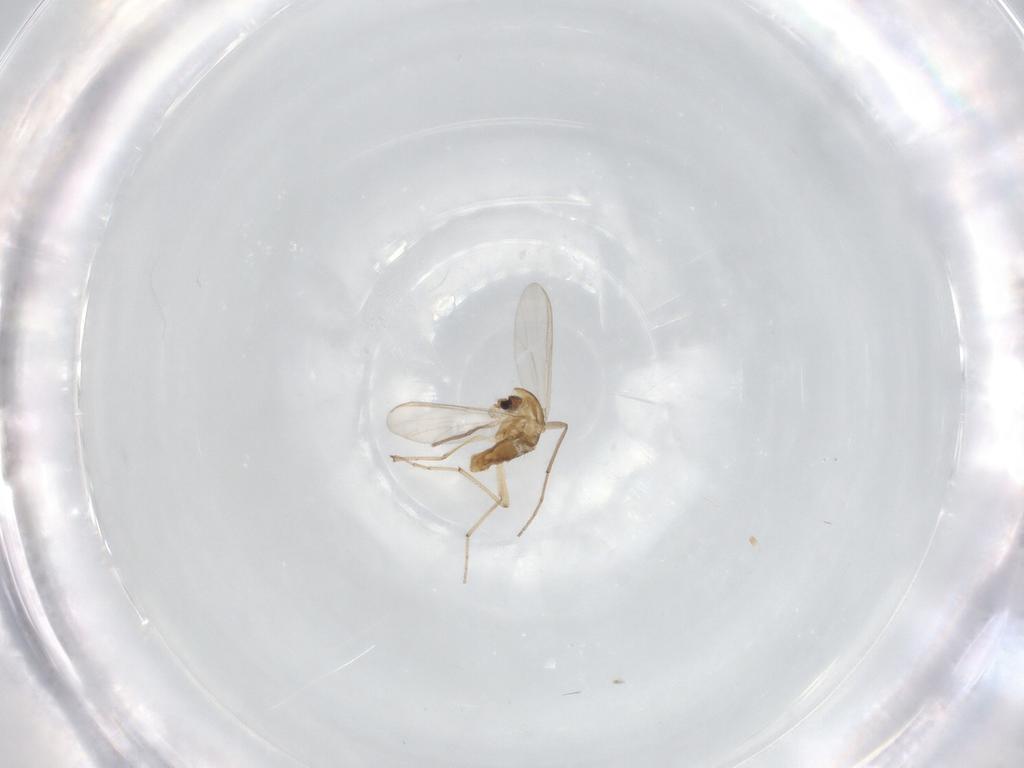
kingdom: Animalia
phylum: Arthropoda
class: Insecta
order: Diptera
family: Chironomidae
